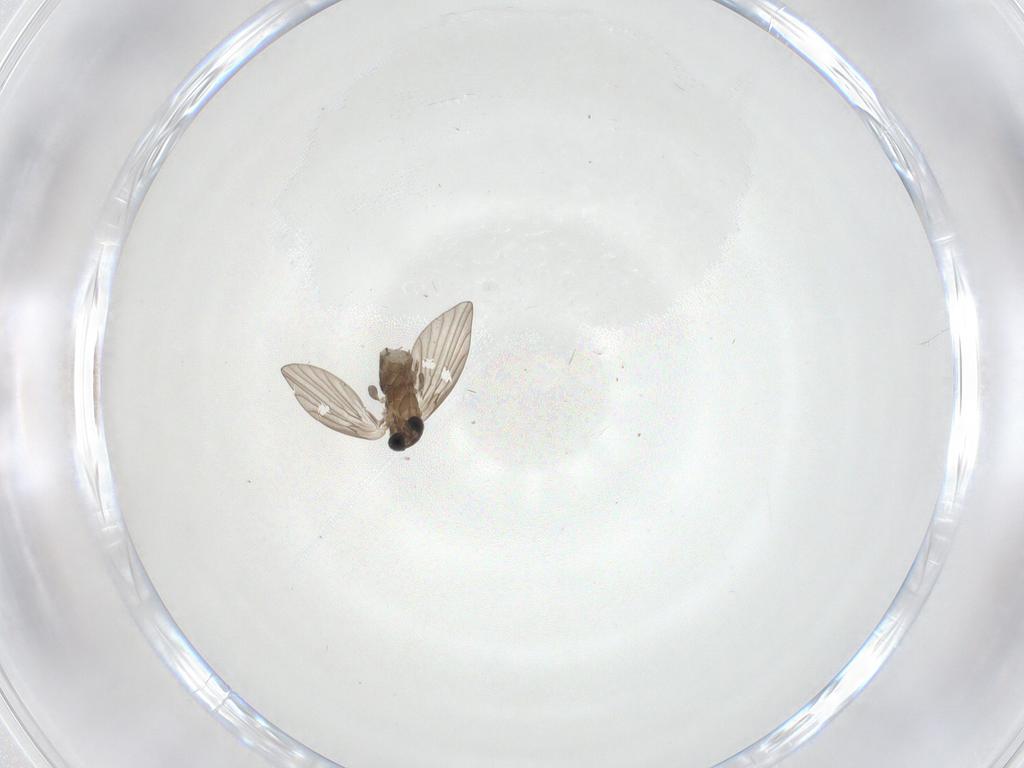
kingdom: Animalia
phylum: Arthropoda
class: Insecta
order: Diptera
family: Psychodidae
